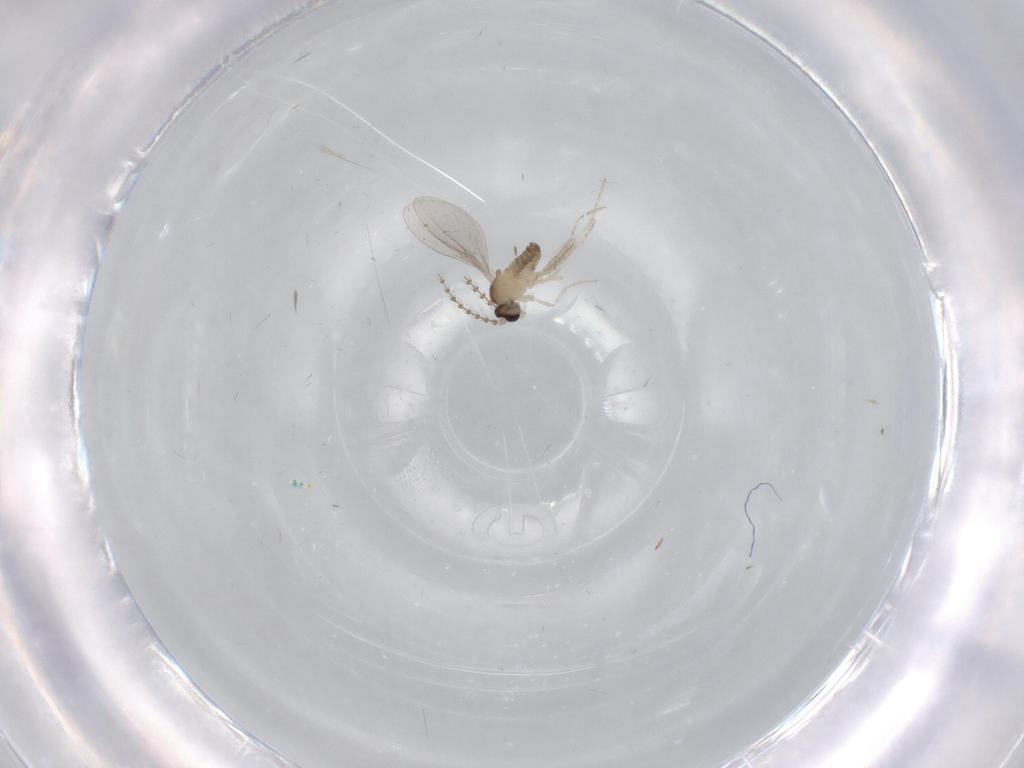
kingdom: Animalia
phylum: Arthropoda
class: Insecta
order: Diptera
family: Cecidomyiidae
